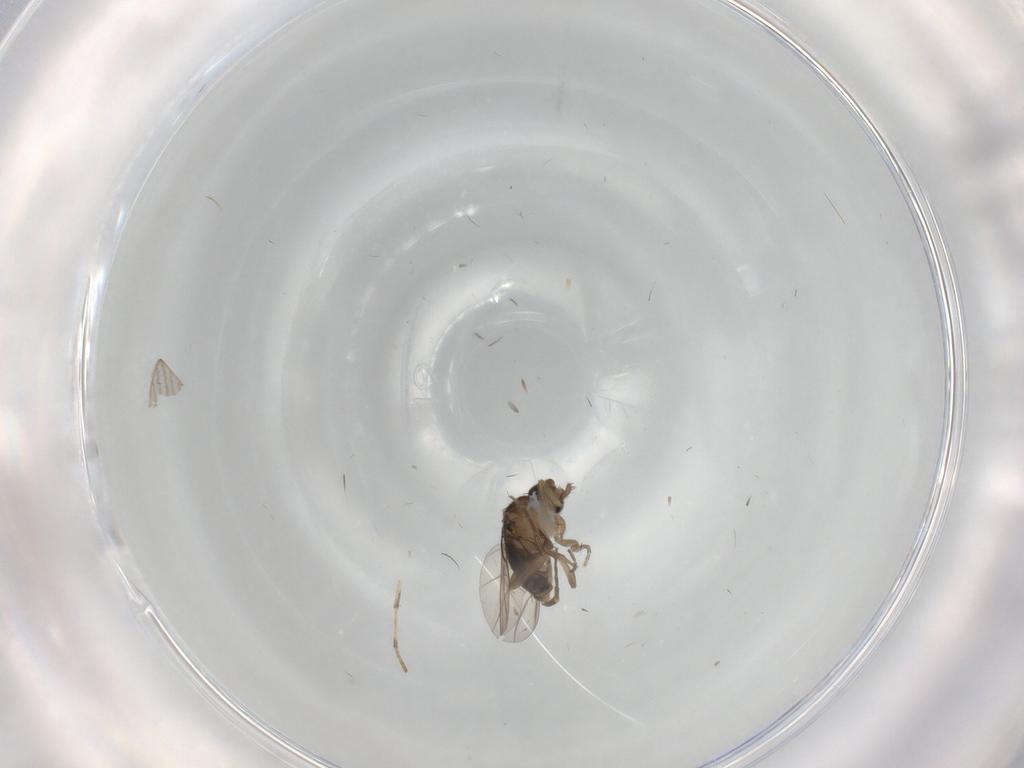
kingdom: Animalia
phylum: Arthropoda
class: Insecta
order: Diptera
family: Phoridae
